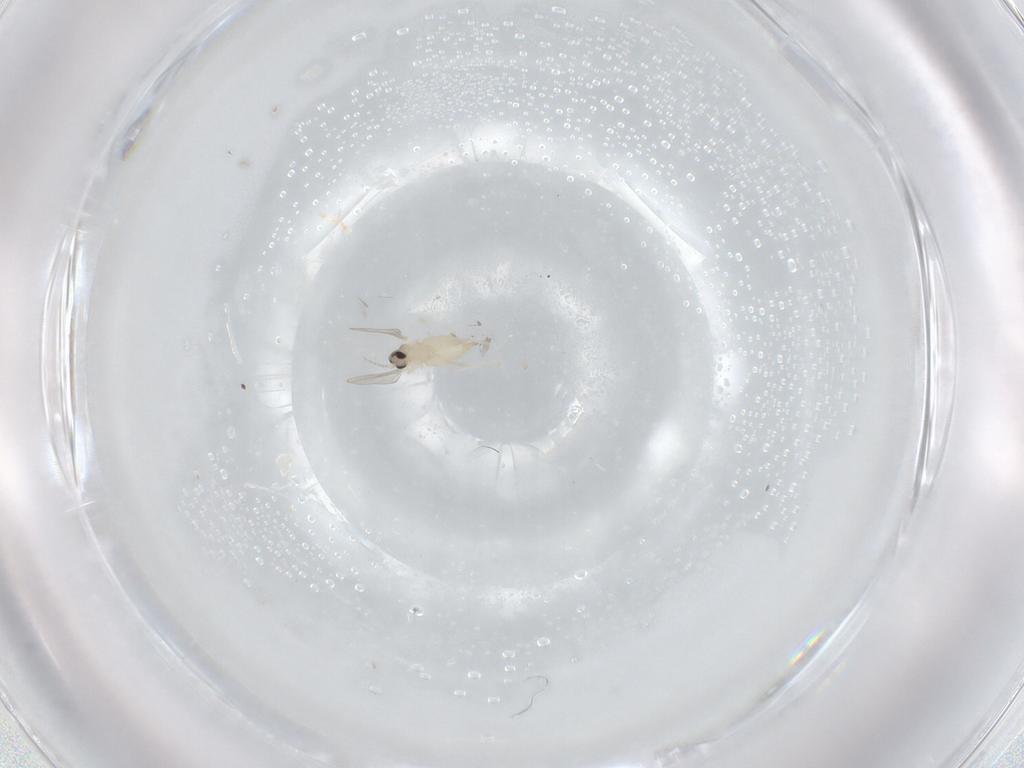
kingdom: Animalia
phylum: Arthropoda
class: Insecta
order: Diptera
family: Cecidomyiidae
